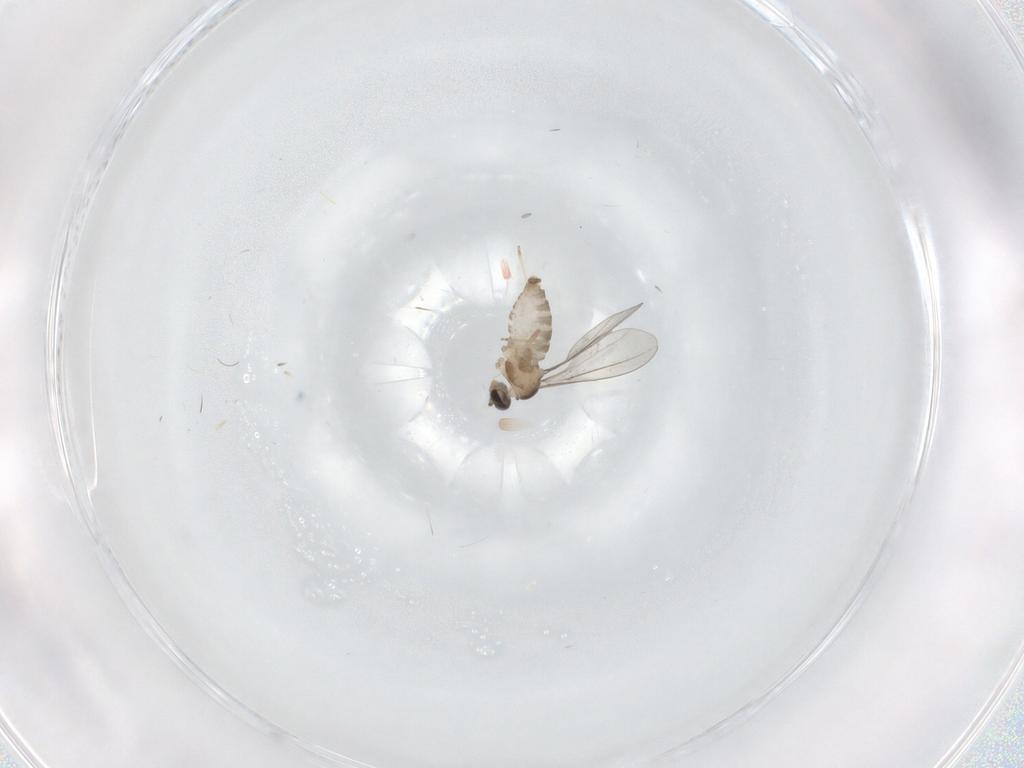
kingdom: Animalia
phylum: Arthropoda
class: Insecta
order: Diptera
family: Cecidomyiidae
